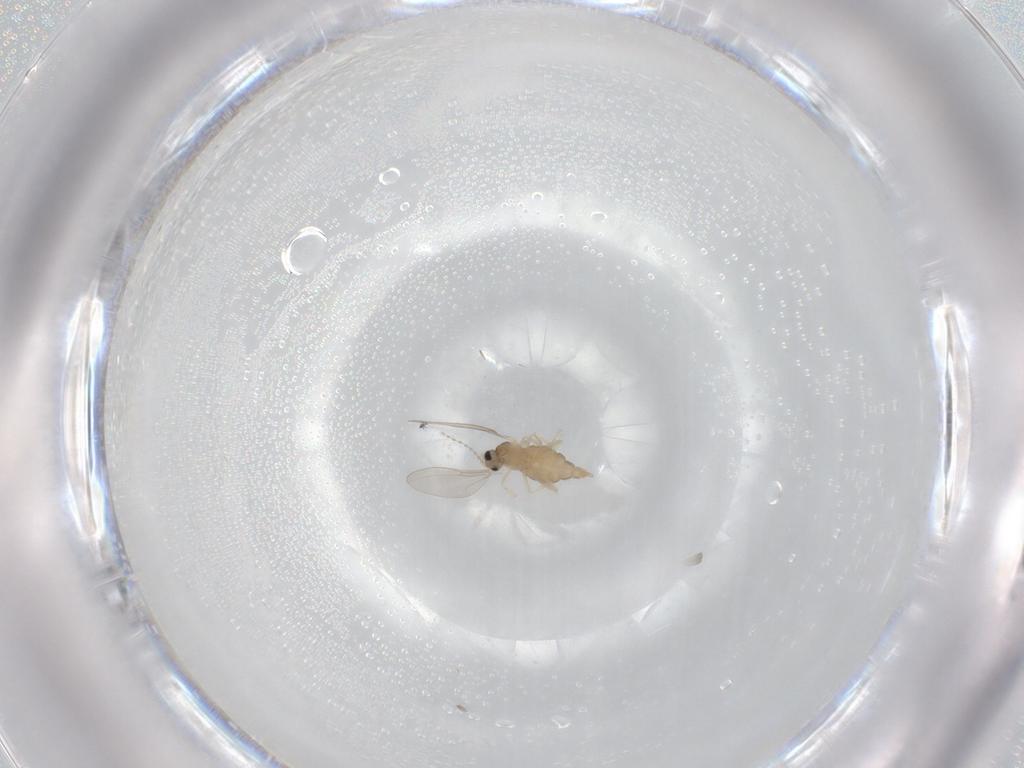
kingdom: Animalia
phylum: Arthropoda
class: Insecta
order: Diptera
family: Cecidomyiidae
